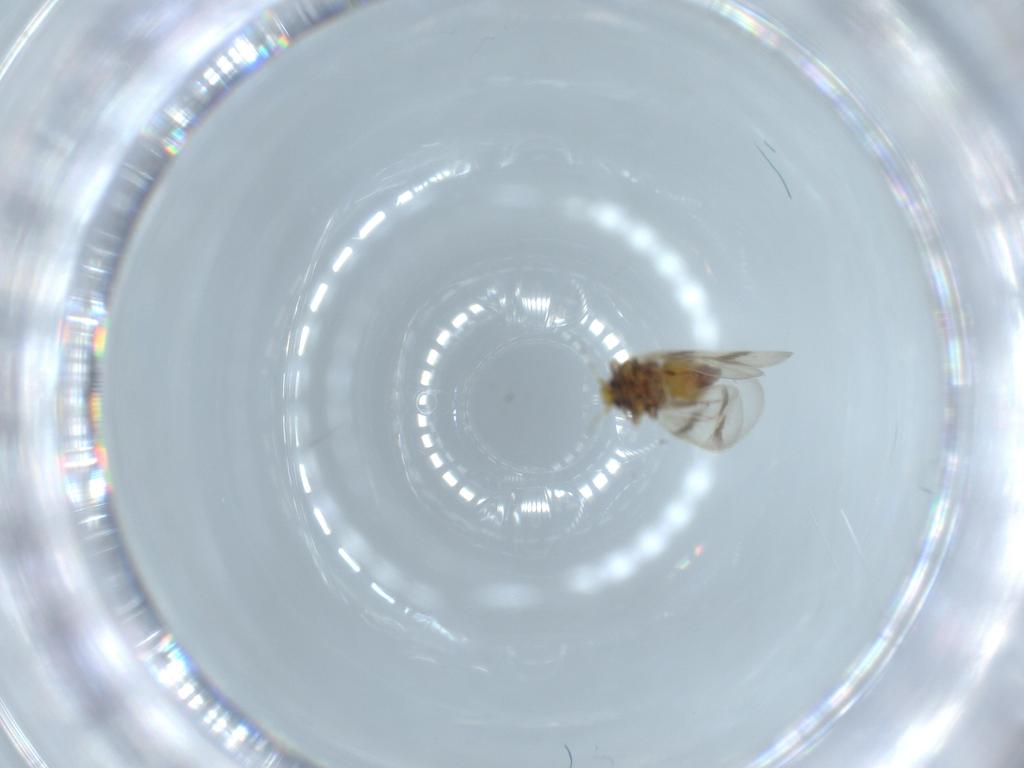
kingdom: Animalia
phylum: Arthropoda
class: Insecta
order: Hemiptera
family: Aleyrodidae
